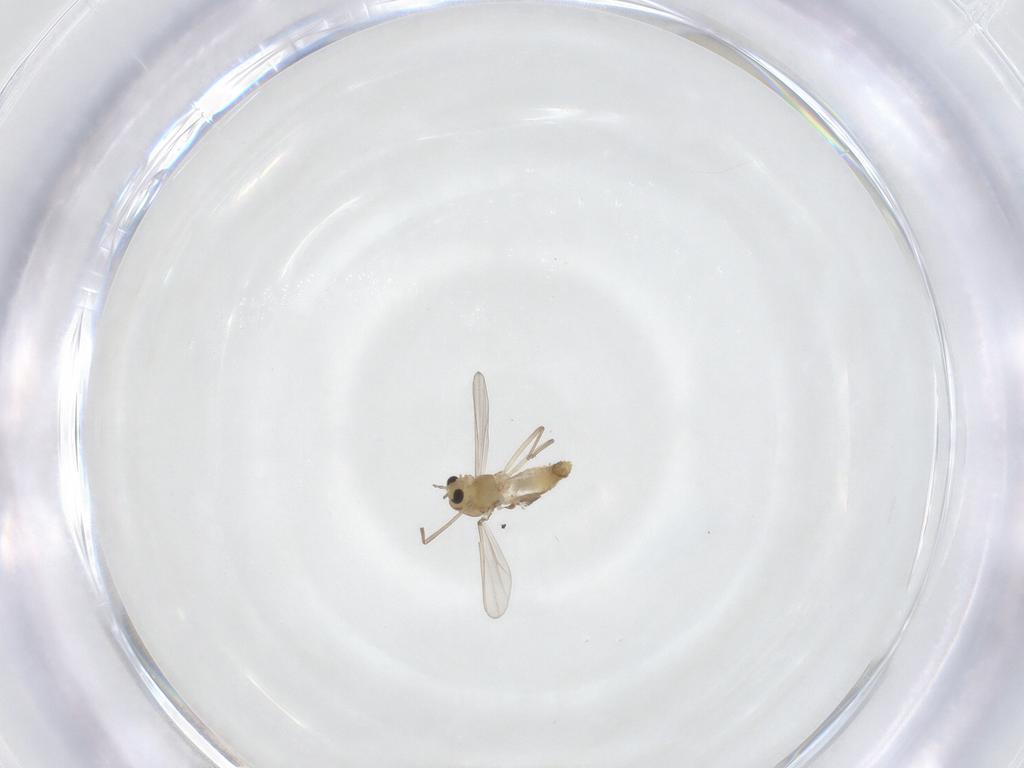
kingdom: Animalia
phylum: Arthropoda
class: Insecta
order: Diptera
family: Chironomidae
